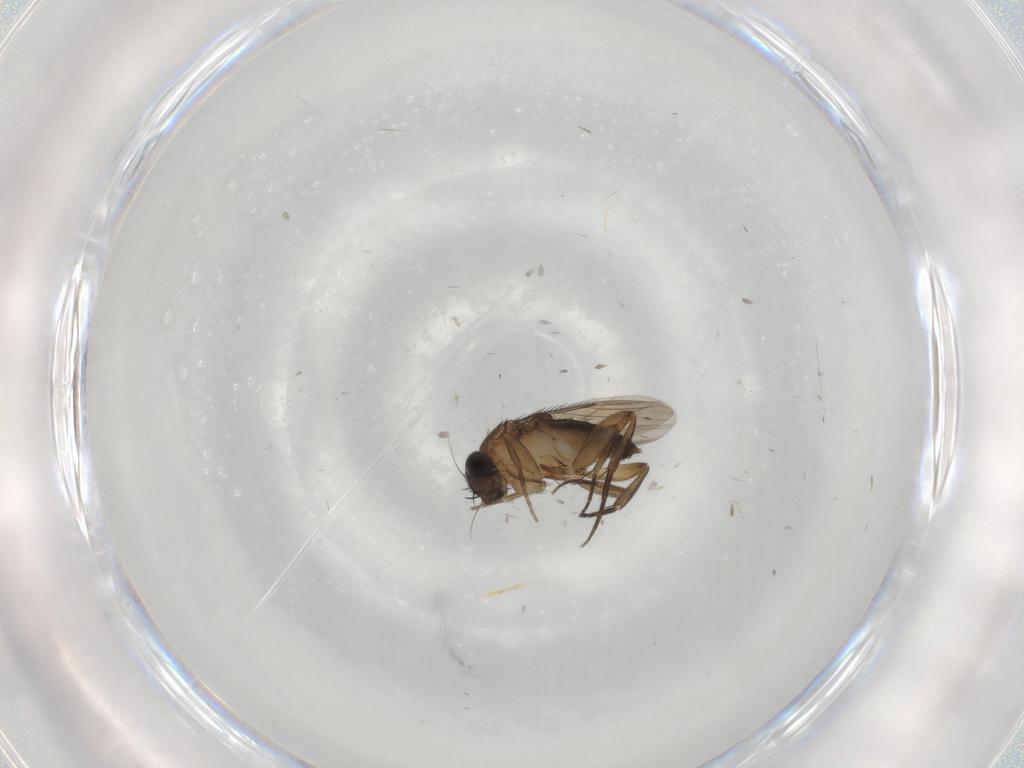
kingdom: Animalia
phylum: Arthropoda
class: Insecta
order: Diptera
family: Phoridae
